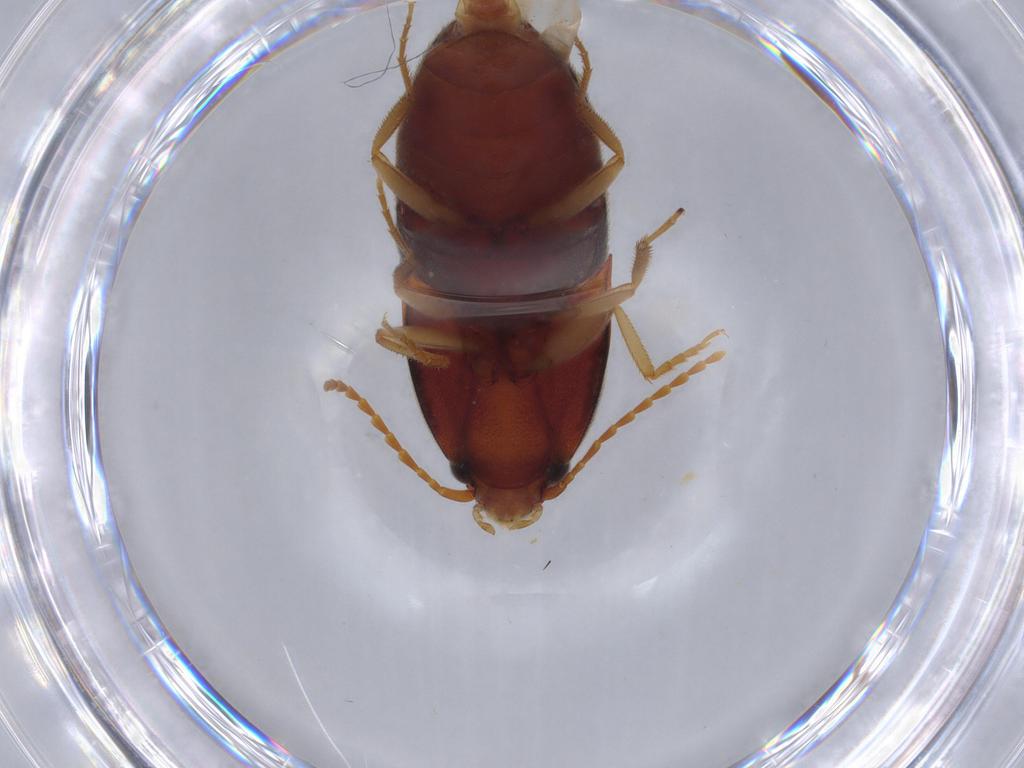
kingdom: Animalia
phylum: Arthropoda
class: Insecta
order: Coleoptera
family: Elateridae
